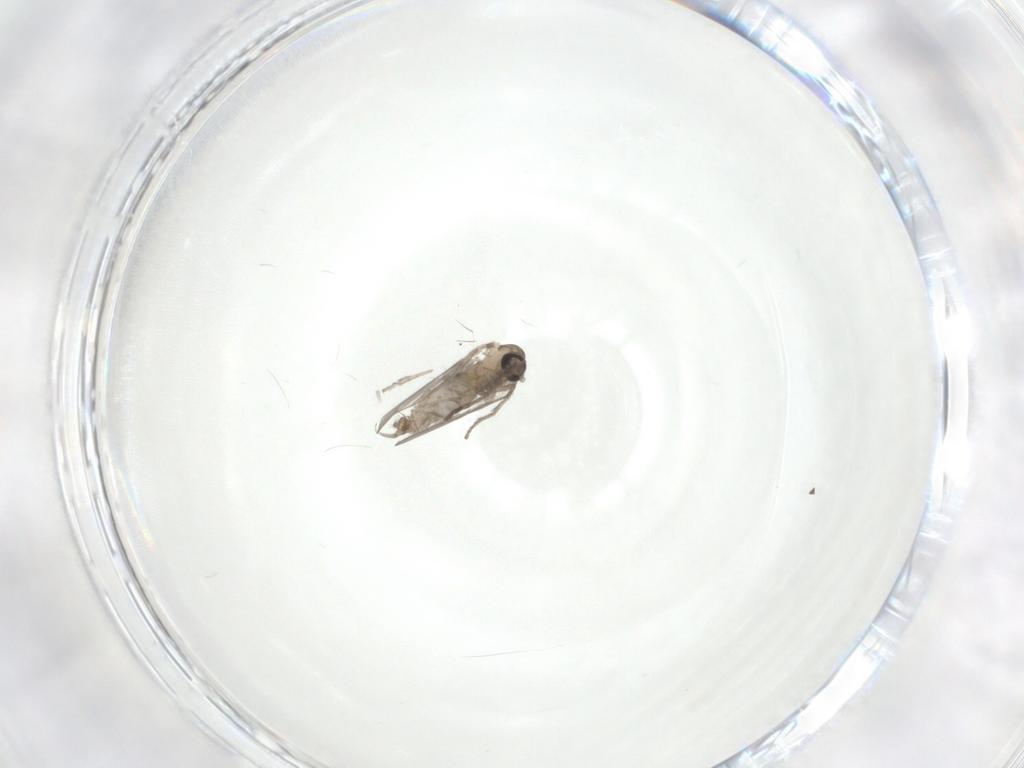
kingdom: Animalia
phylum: Arthropoda
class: Insecta
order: Diptera
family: Psychodidae
